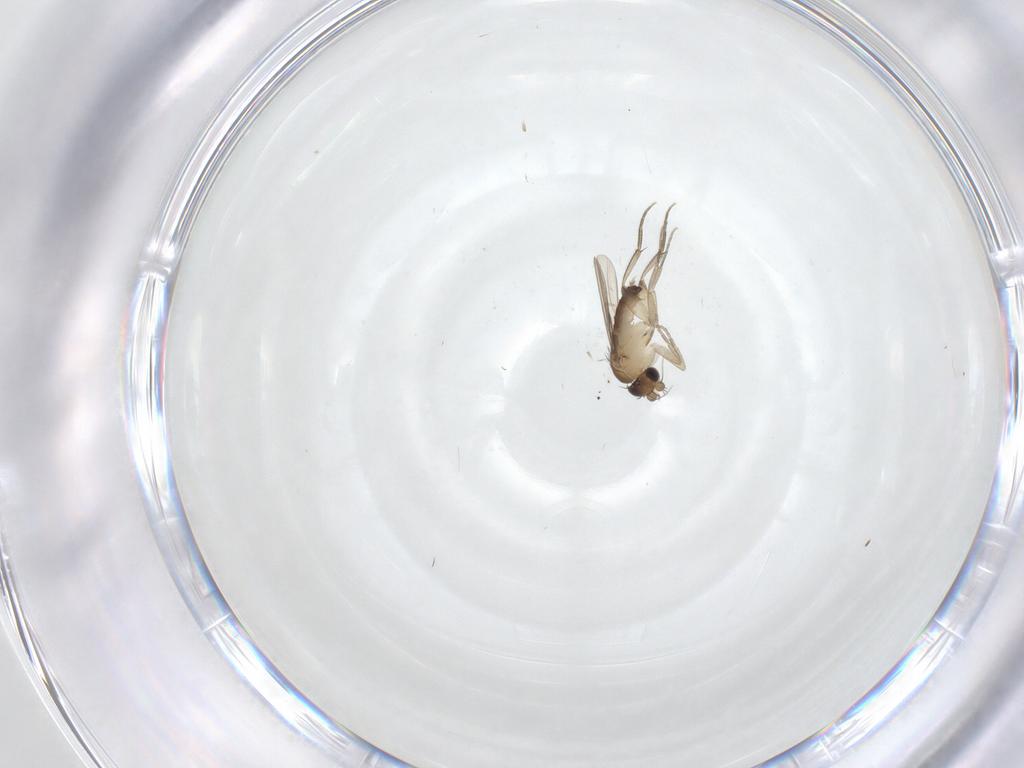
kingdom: Animalia
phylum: Arthropoda
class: Insecta
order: Diptera
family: Phoridae
